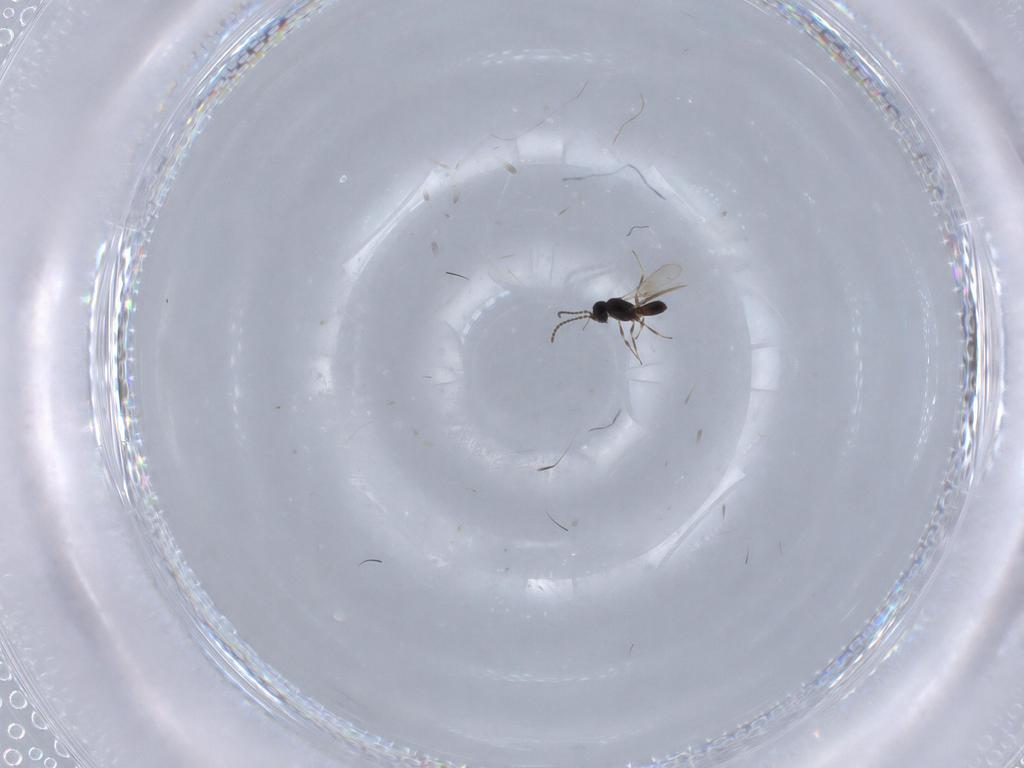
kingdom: Animalia
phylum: Arthropoda
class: Insecta
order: Hymenoptera
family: Scelionidae
